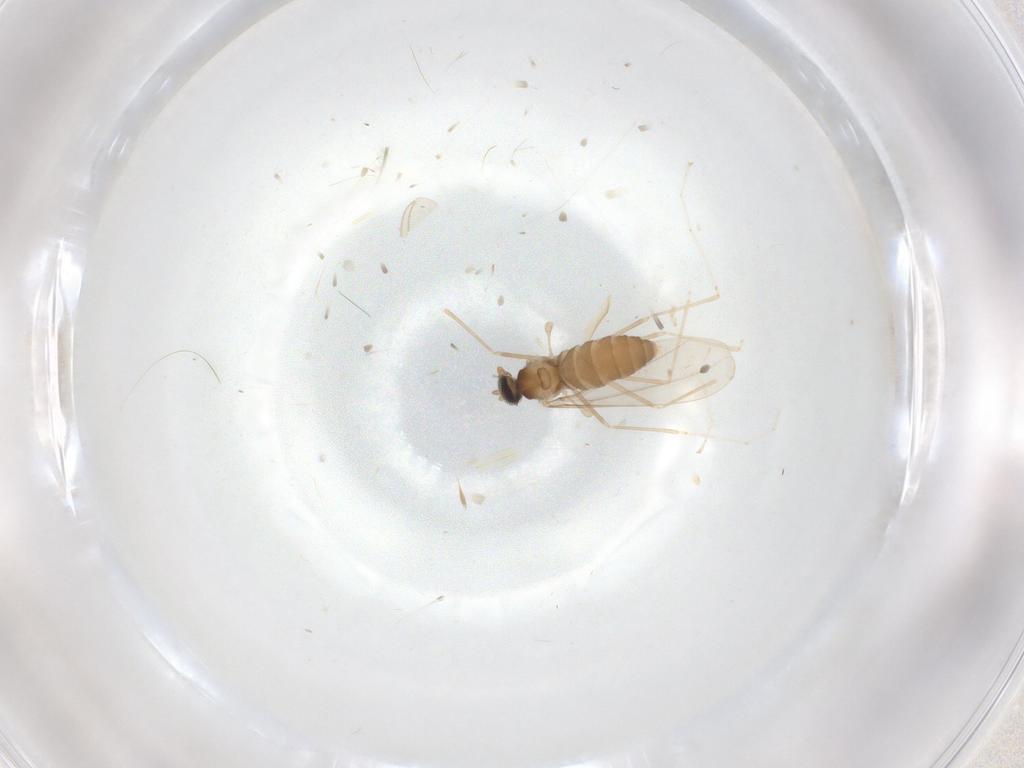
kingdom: Animalia
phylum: Arthropoda
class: Insecta
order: Diptera
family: Cecidomyiidae
